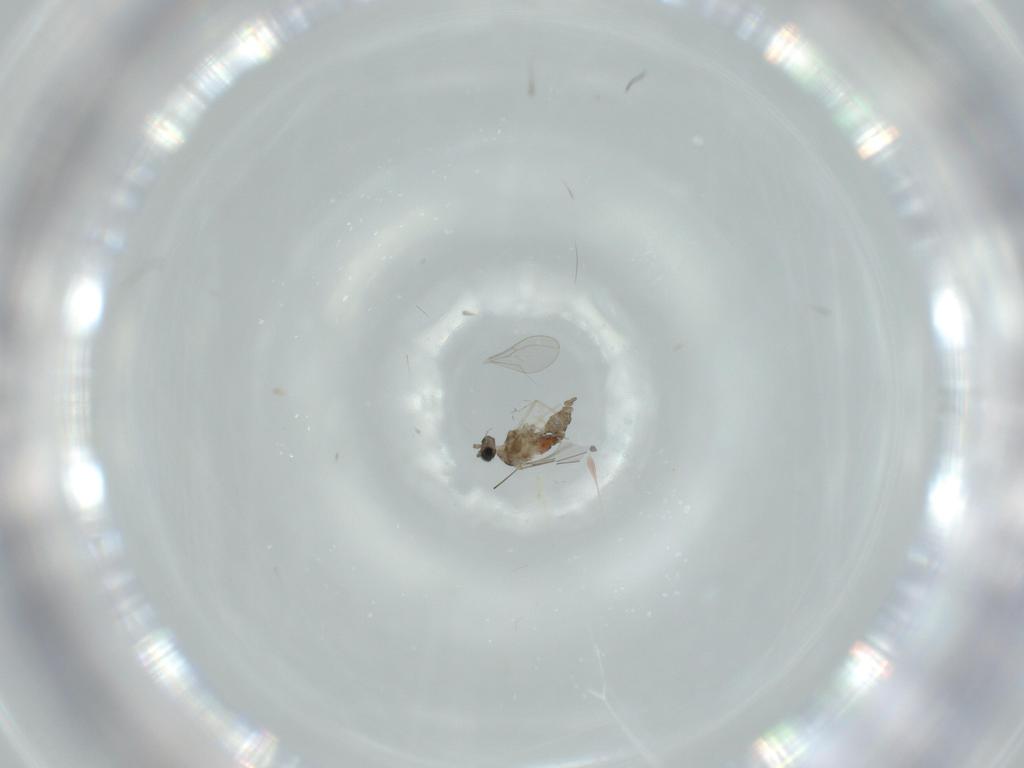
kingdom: Animalia
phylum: Arthropoda
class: Insecta
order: Diptera
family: Cecidomyiidae
